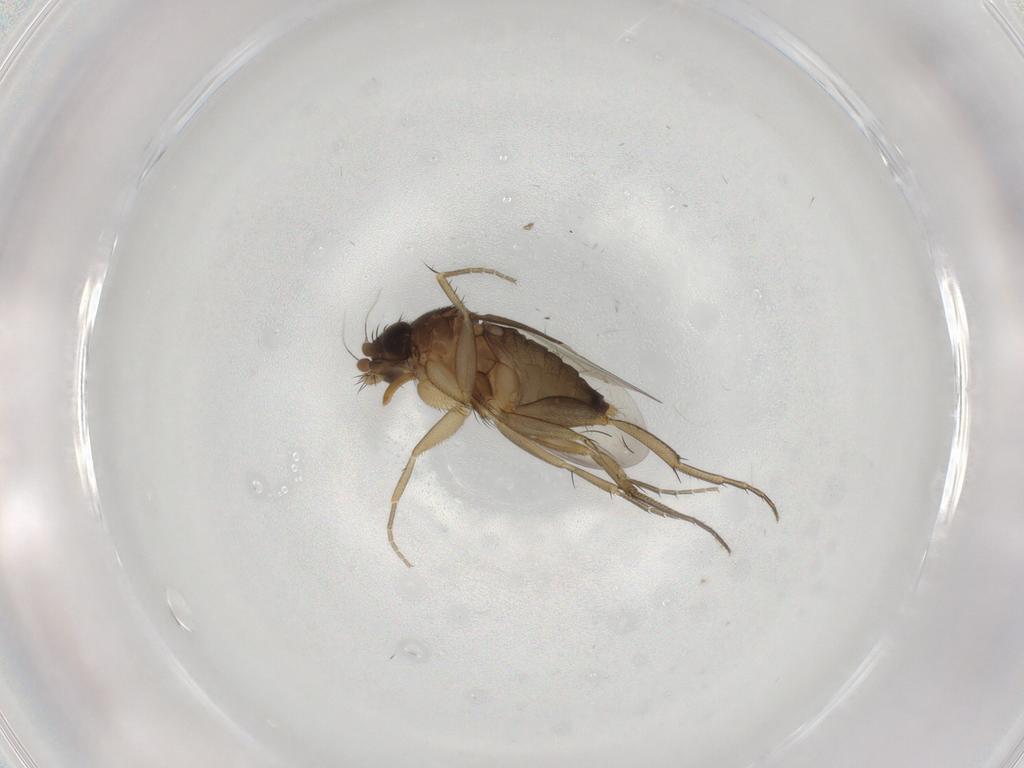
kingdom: Animalia
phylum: Arthropoda
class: Insecta
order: Diptera
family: Phoridae
